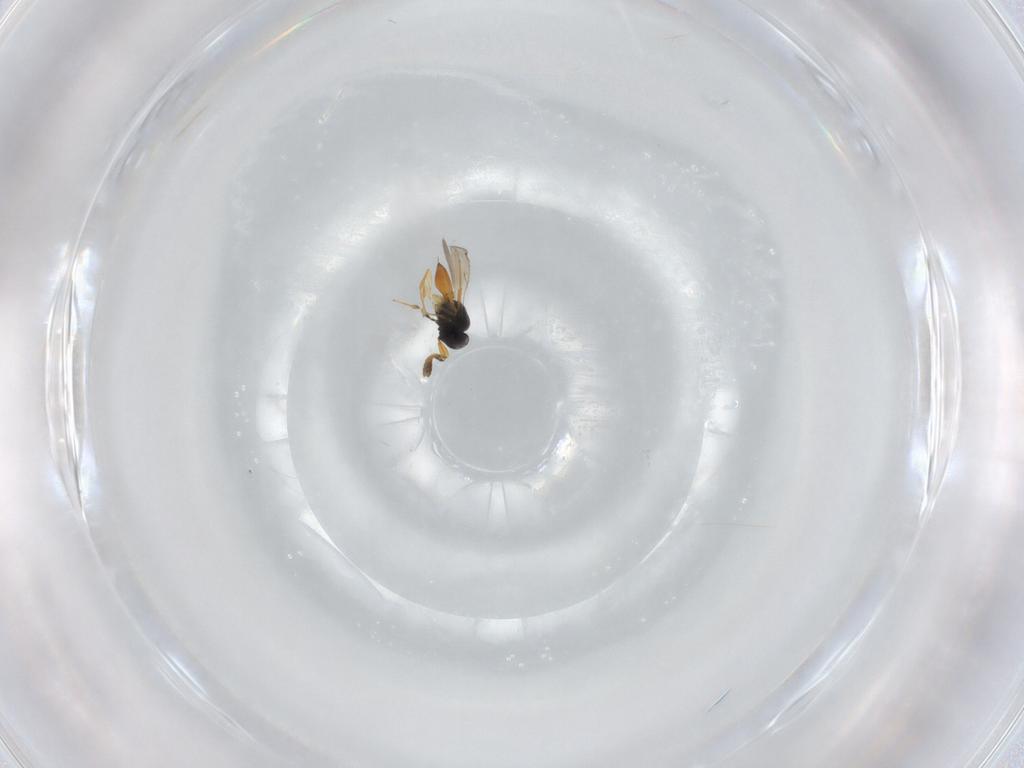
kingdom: Animalia
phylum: Arthropoda
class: Insecta
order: Hymenoptera
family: Scelionidae
